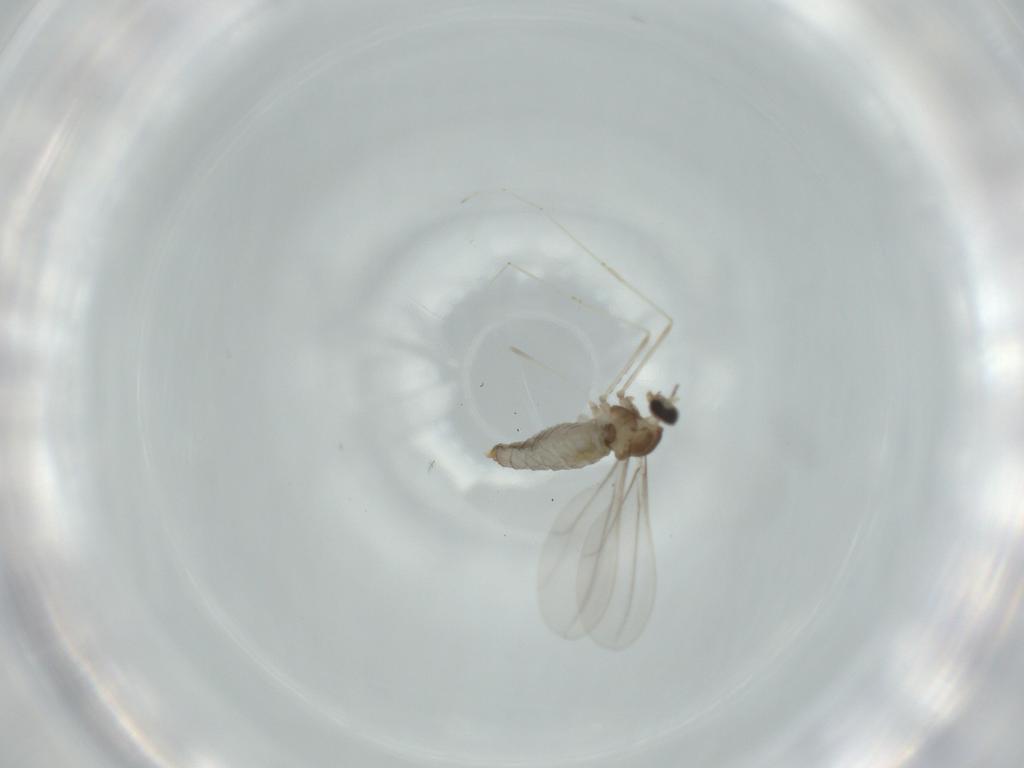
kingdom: Animalia
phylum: Arthropoda
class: Insecta
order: Diptera
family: Cecidomyiidae
